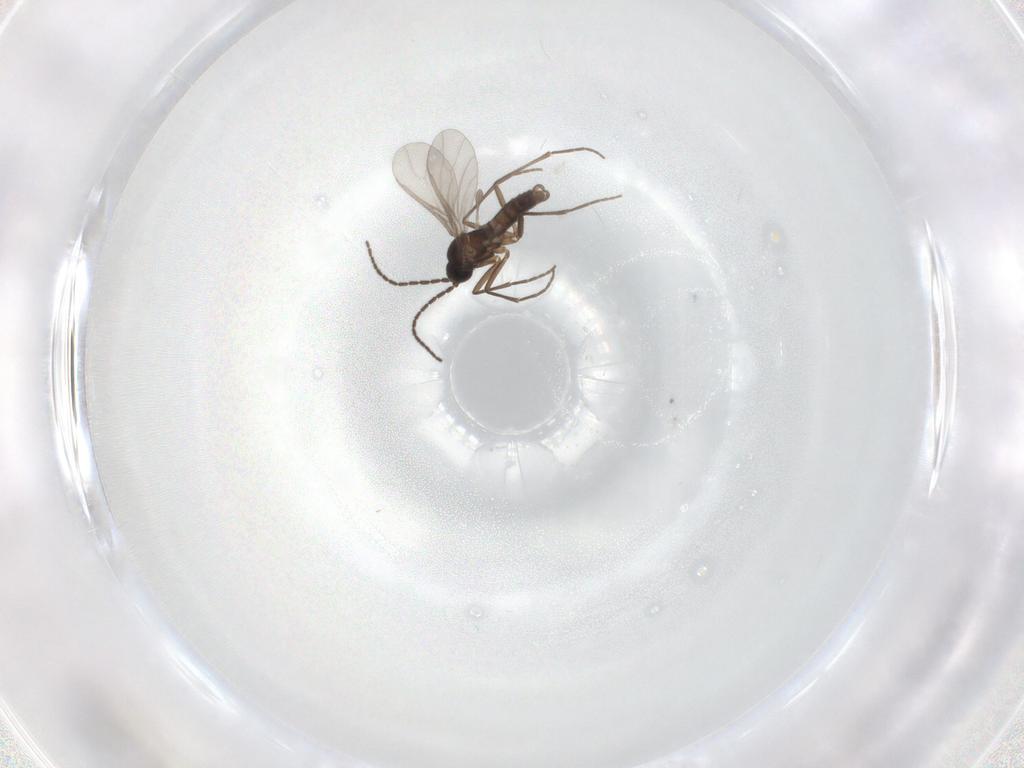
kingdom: Animalia
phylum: Arthropoda
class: Insecta
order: Diptera
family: Sciaridae
